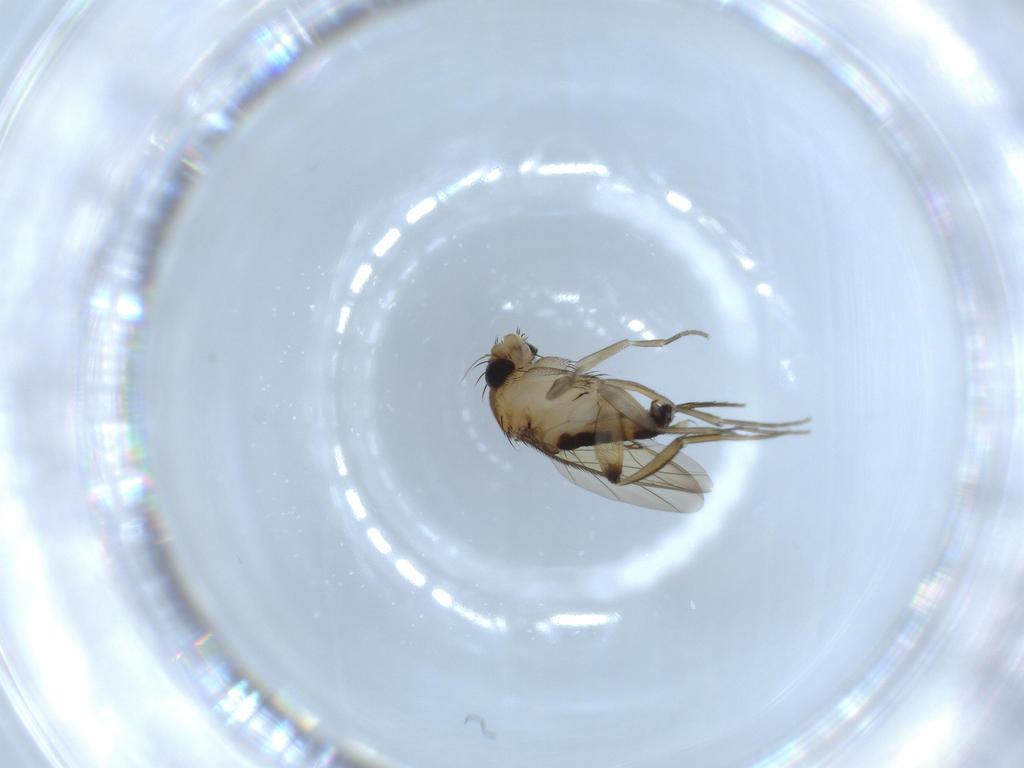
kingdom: Animalia
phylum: Arthropoda
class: Insecta
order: Diptera
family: Phoridae
